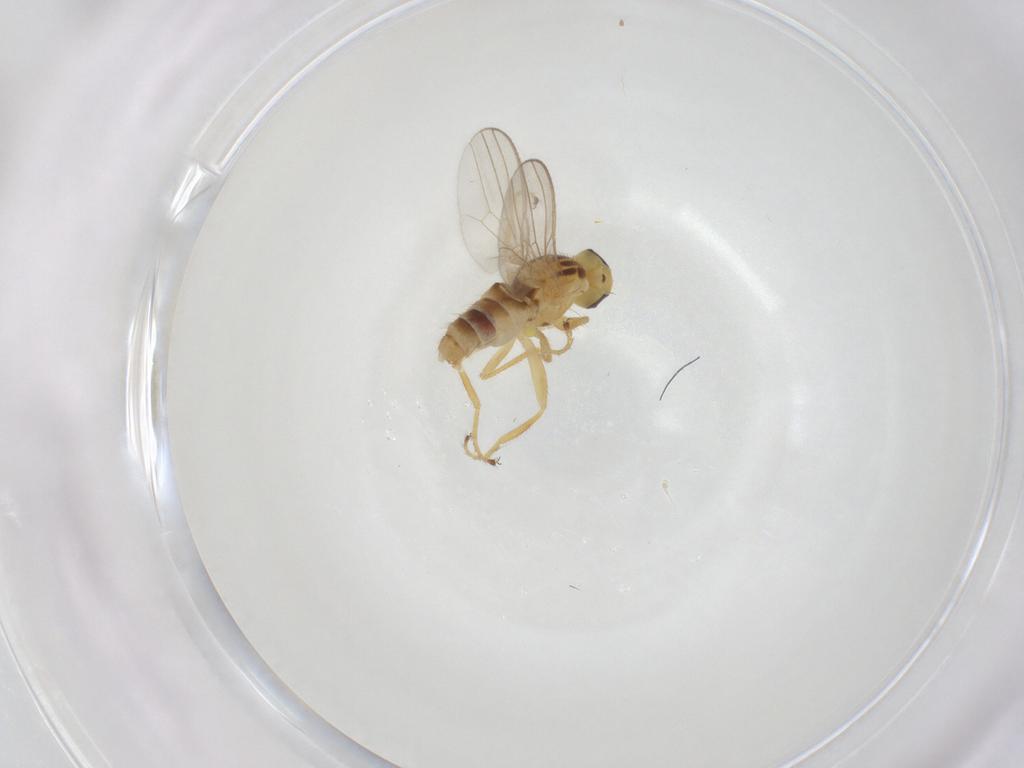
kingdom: Animalia
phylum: Arthropoda
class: Insecta
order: Diptera
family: Chyromyidae
